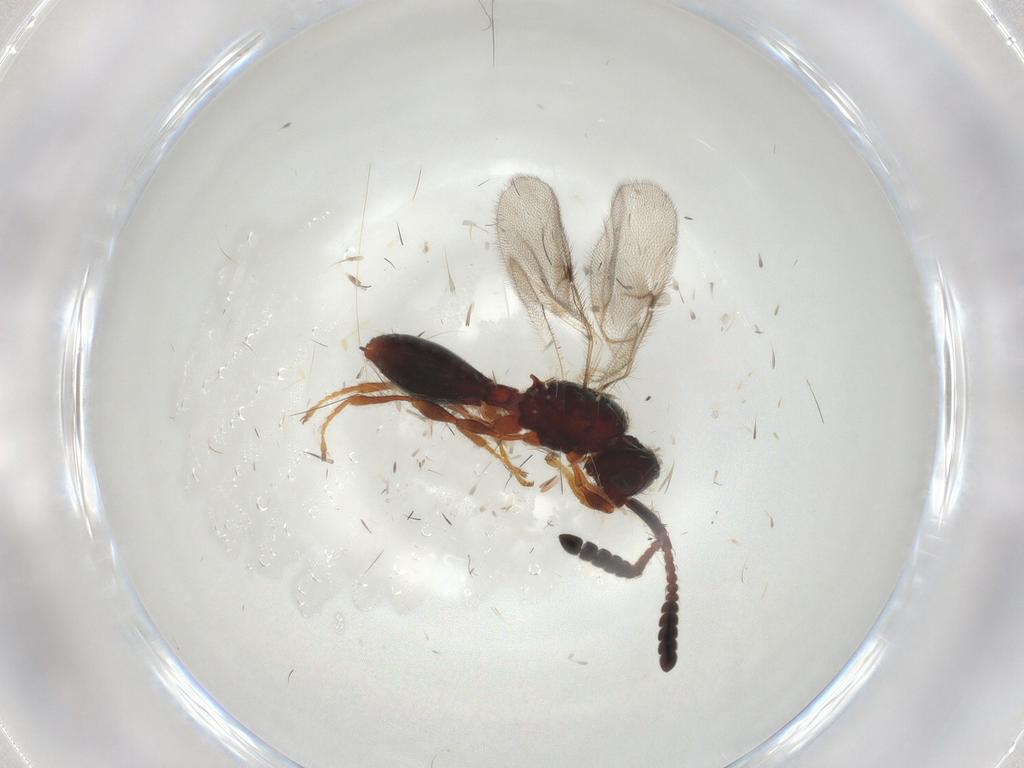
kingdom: Animalia
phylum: Arthropoda
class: Insecta
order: Hymenoptera
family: Diapriidae
